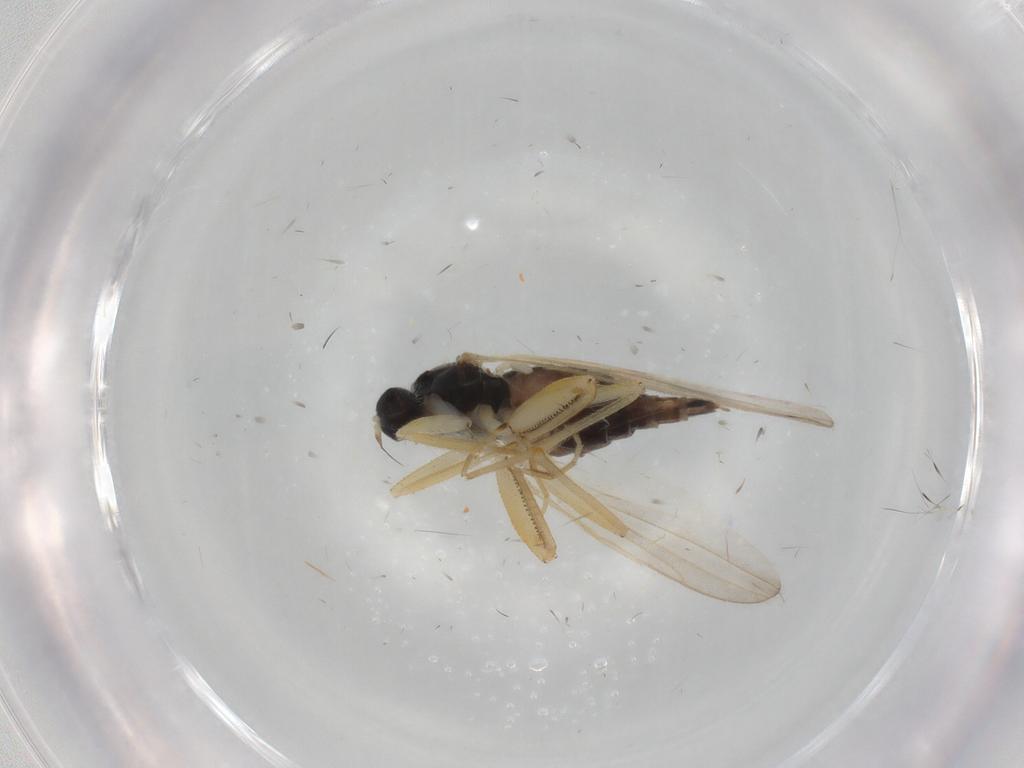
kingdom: Animalia
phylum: Arthropoda
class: Insecta
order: Diptera
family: Hybotidae
